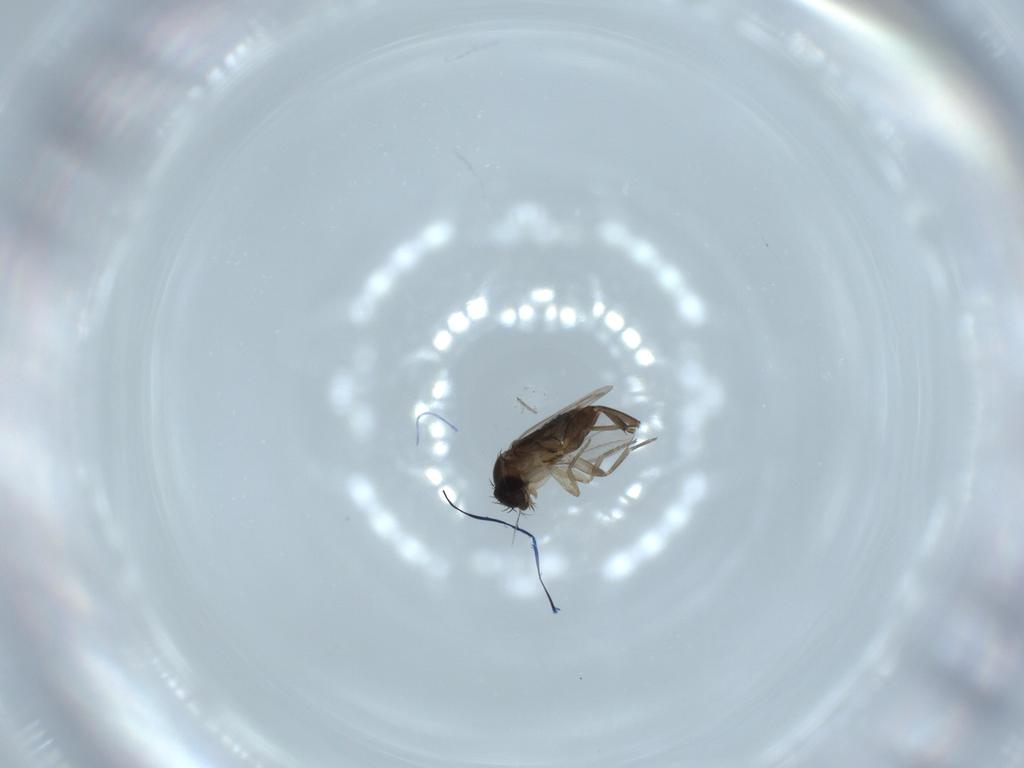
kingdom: Animalia
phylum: Arthropoda
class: Insecta
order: Diptera
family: Phoridae
